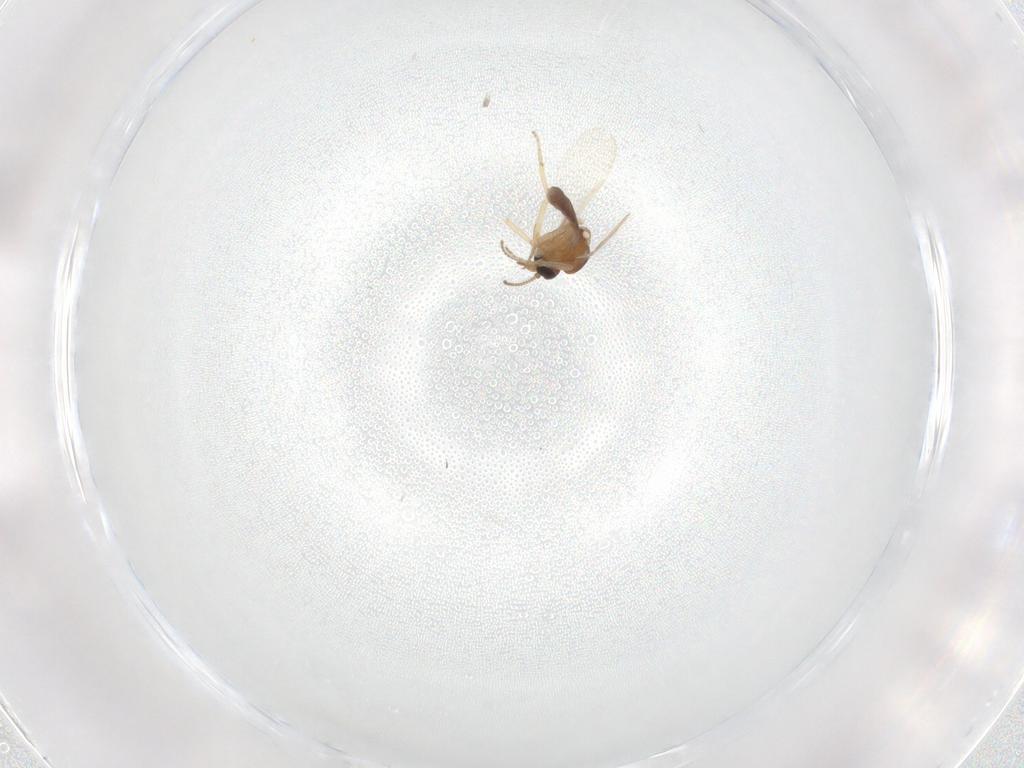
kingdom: Animalia
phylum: Arthropoda
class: Insecta
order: Diptera
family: Ceratopogonidae
